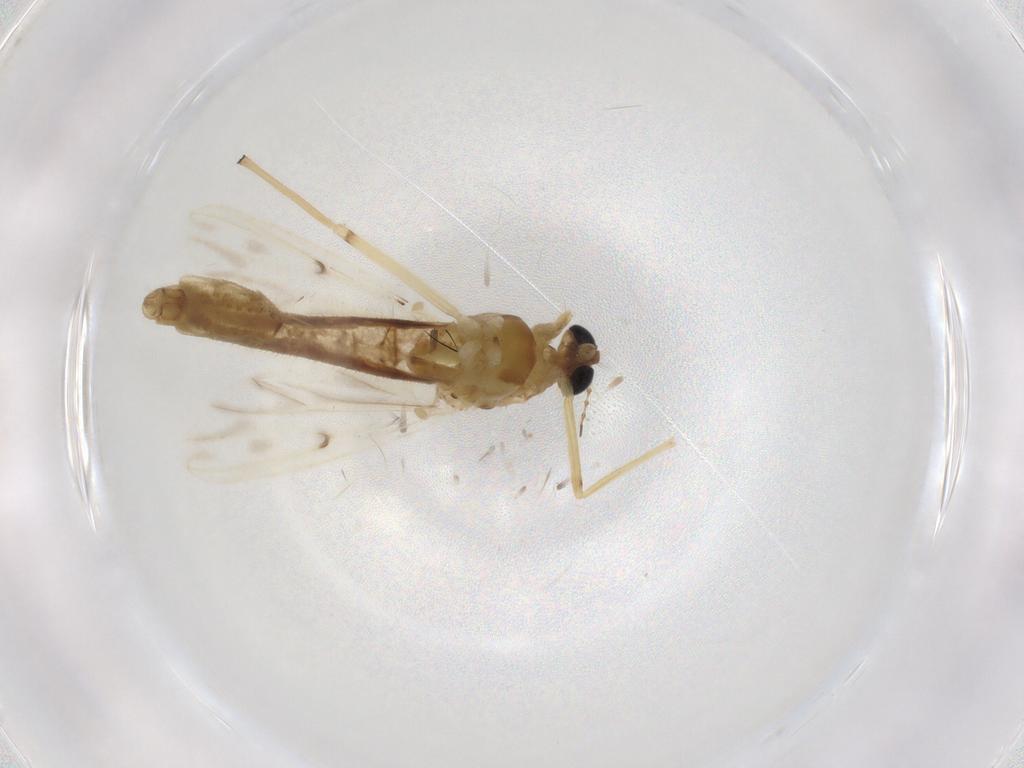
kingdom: Animalia
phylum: Arthropoda
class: Insecta
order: Diptera
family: Chironomidae
